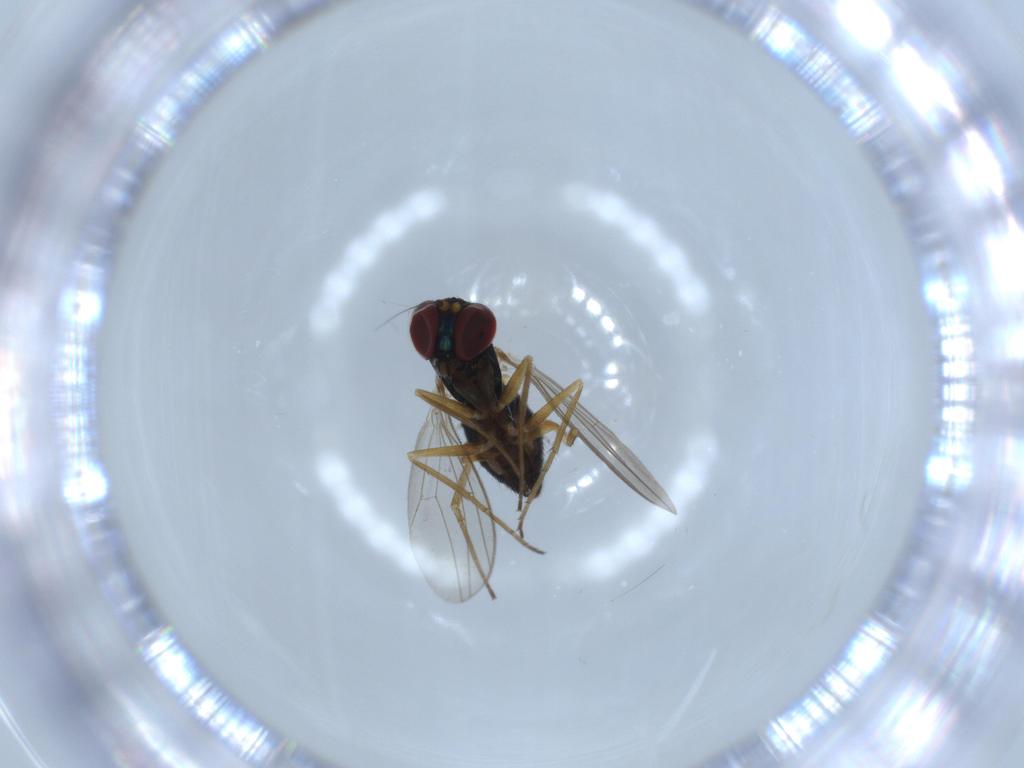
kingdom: Animalia
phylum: Arthropoda
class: Insecta
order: Diptera
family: Dolichopodidae
